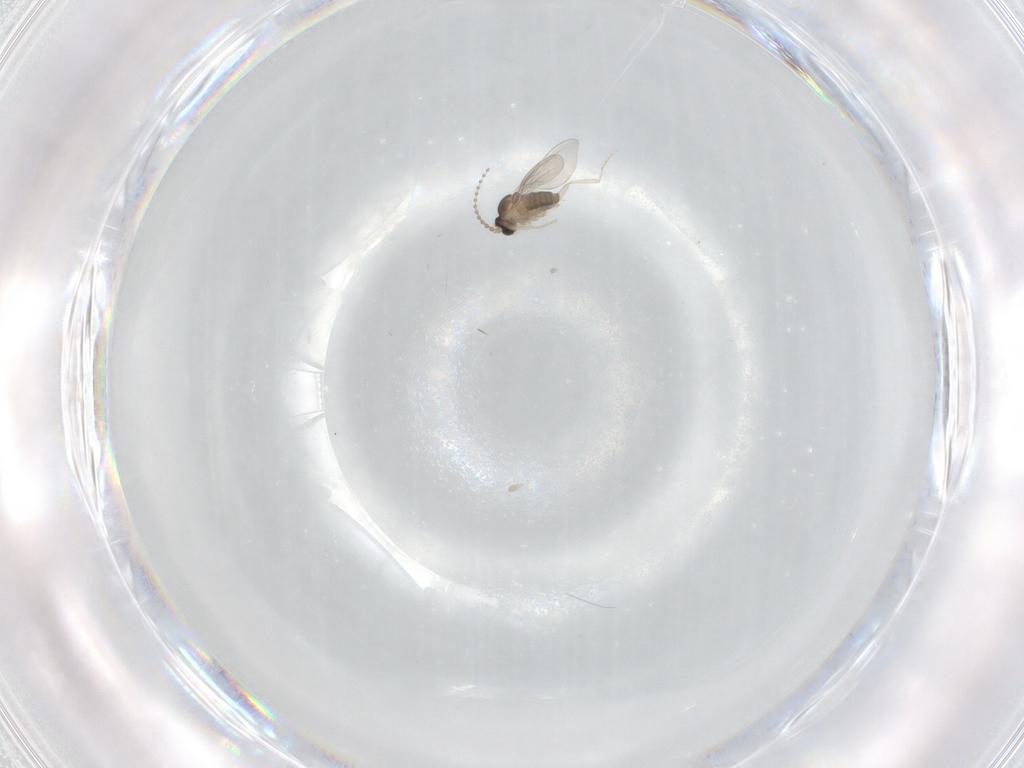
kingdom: Animalia
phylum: Arthropoda
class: Insecta
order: Diptera
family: Cecidomyiidae
